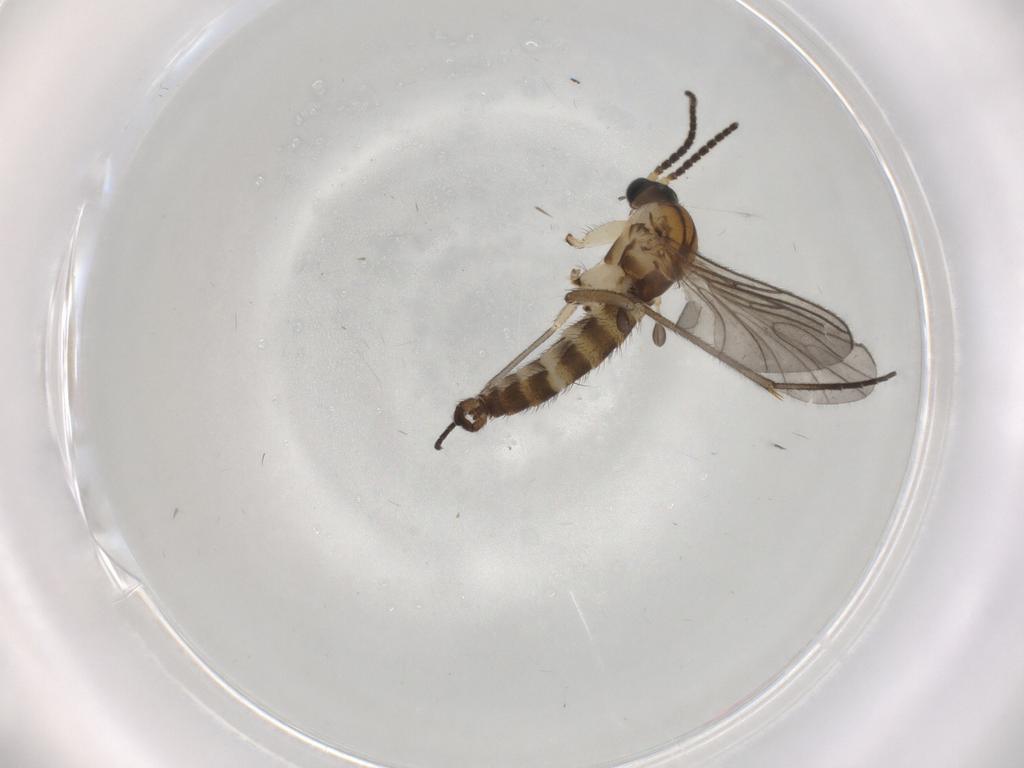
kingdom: Animalia
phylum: Arthropoda
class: Insecta
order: Diptera
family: Sciaridae
